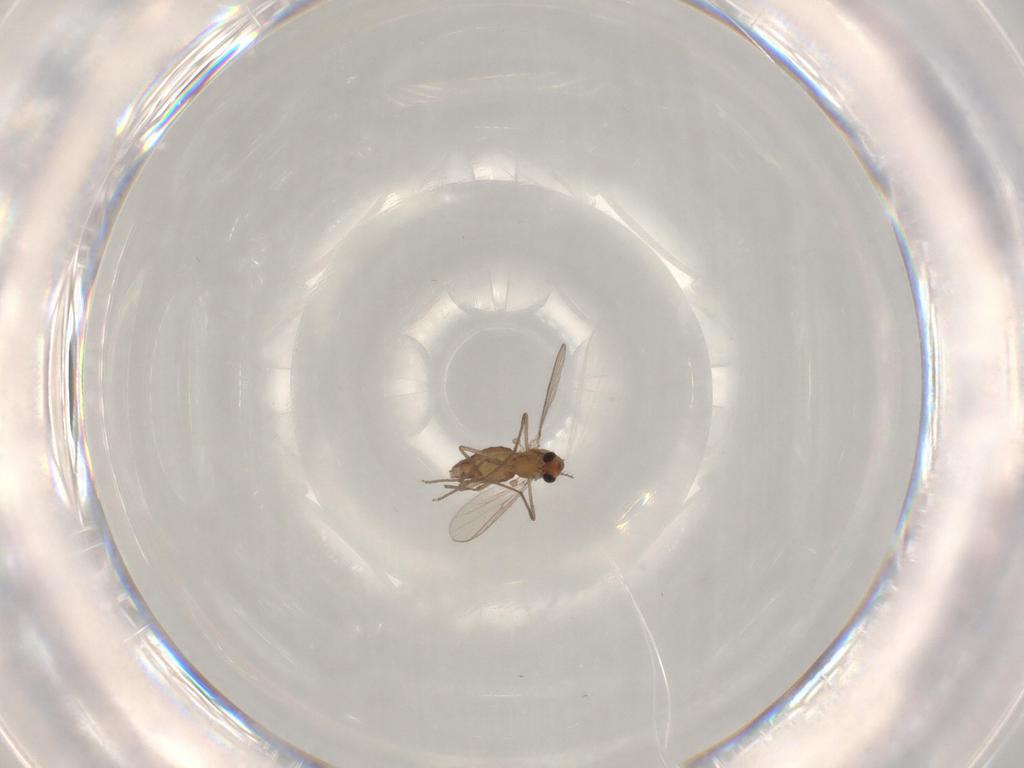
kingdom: Animalia
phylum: Arthropoda
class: Insecta
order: Diptera
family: Chironomidae
